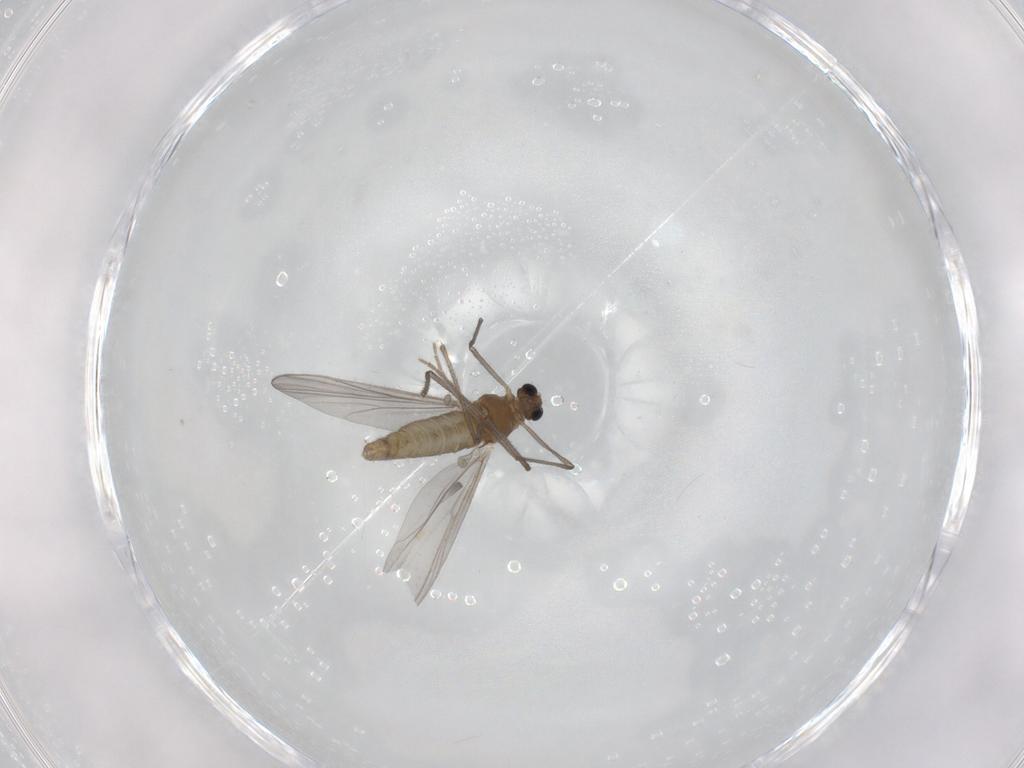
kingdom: Animalia
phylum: Arthropoda
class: Insecta
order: Diptera
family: Chironomidae
